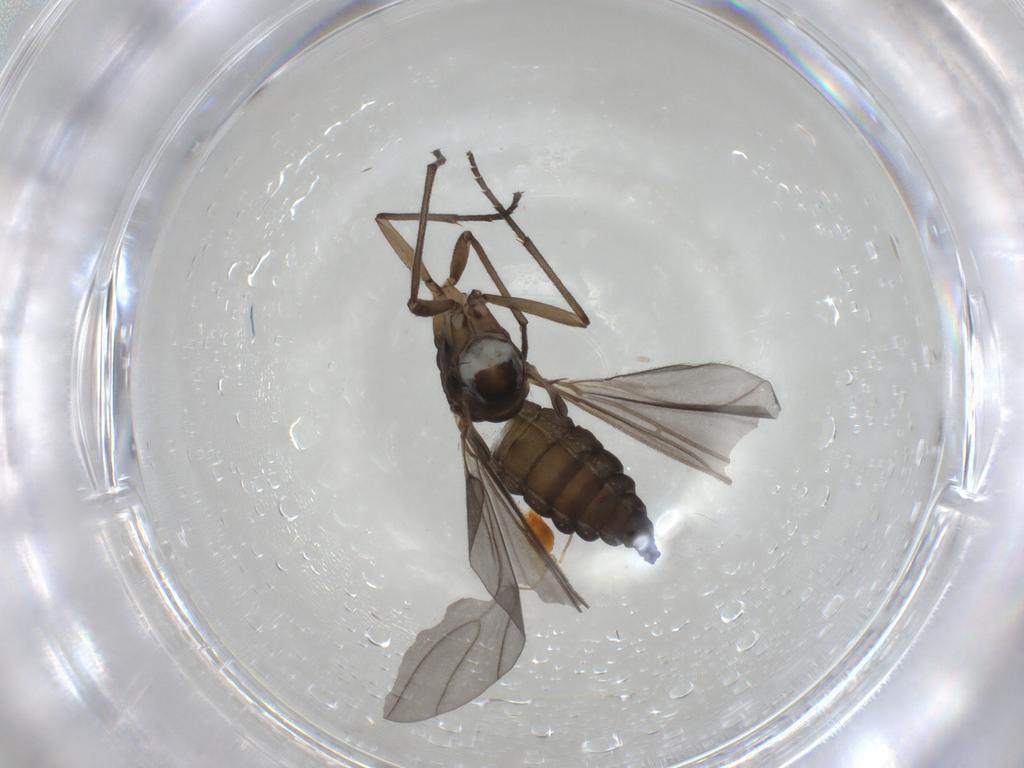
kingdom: Animalia
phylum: Arthropoda
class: Insecta
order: Diptera
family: Sciaridae
